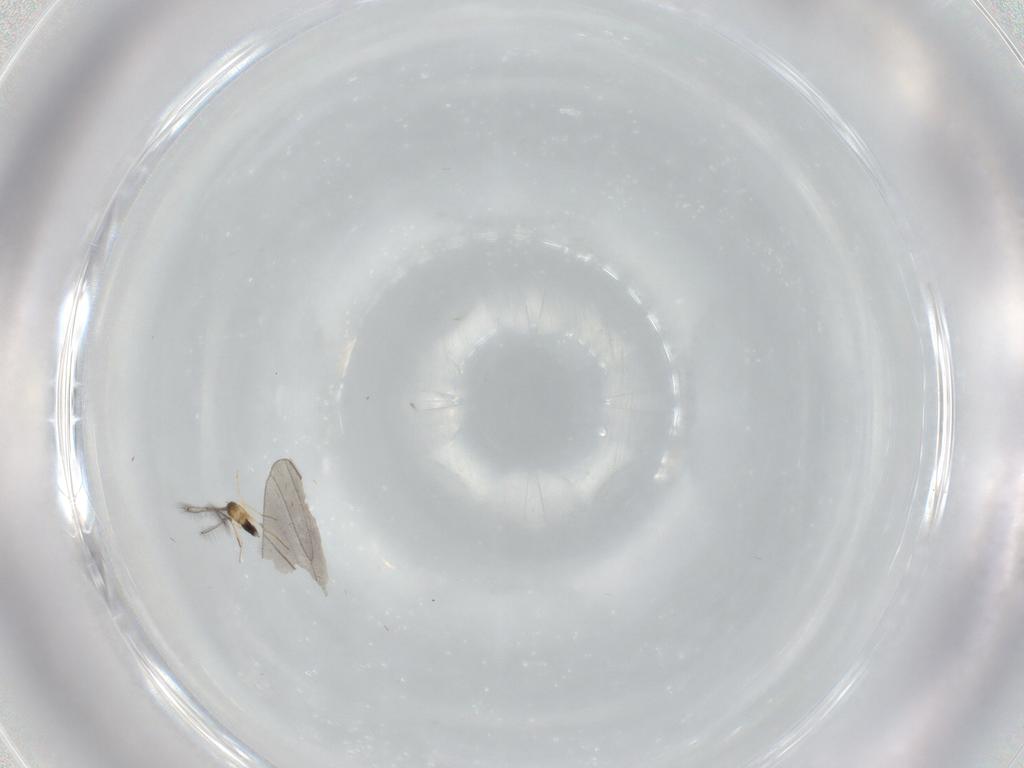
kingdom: Animalia
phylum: Arthropoda
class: Insecta
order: Hymenoptera
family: Mymaridae
